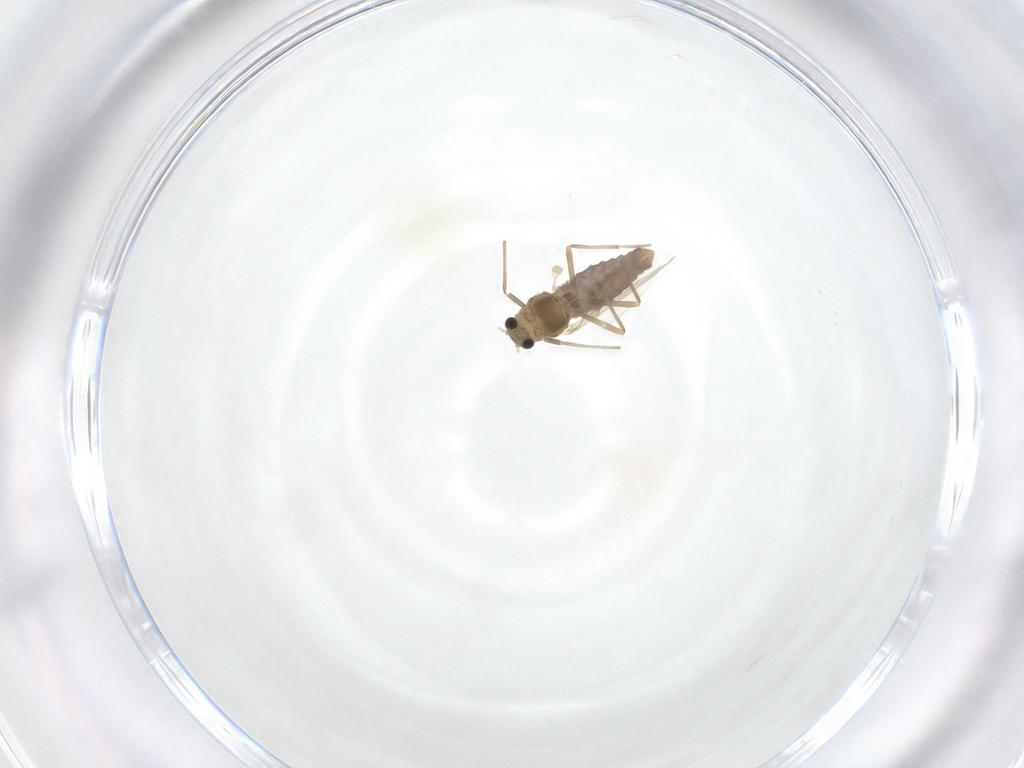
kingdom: Animalia
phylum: Arthropoda
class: Insecta
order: Diptera
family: Chironomidae
